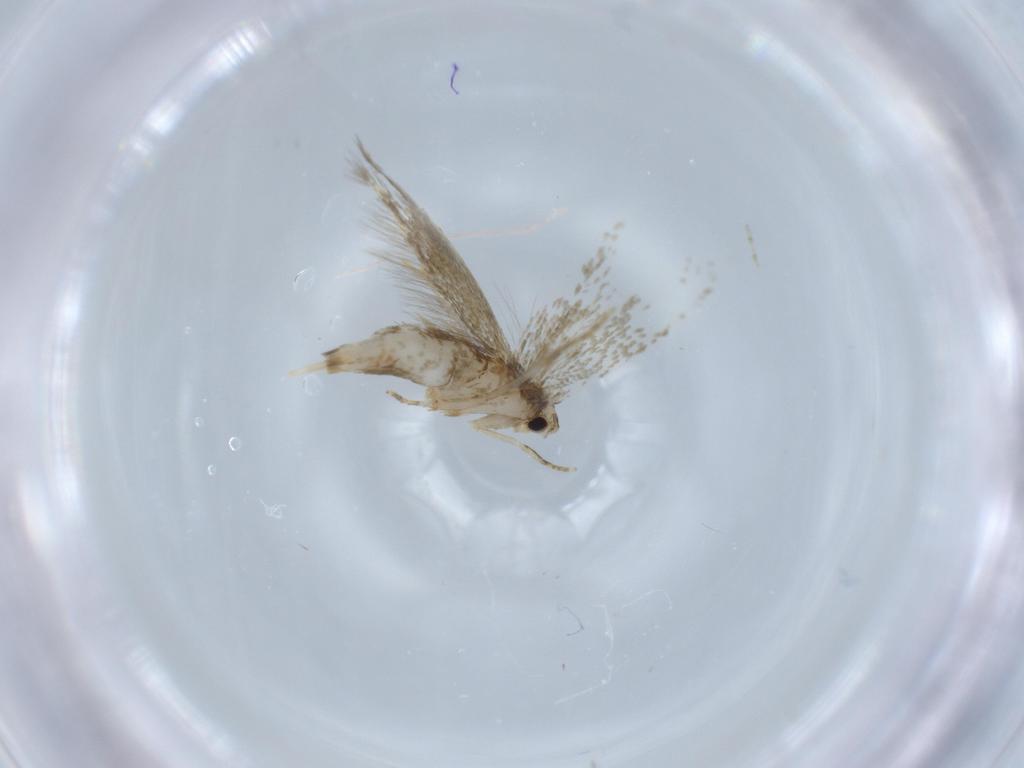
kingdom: Animalia
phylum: Arthropoda
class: Insecta
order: Lepidoptera
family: Tineidae
